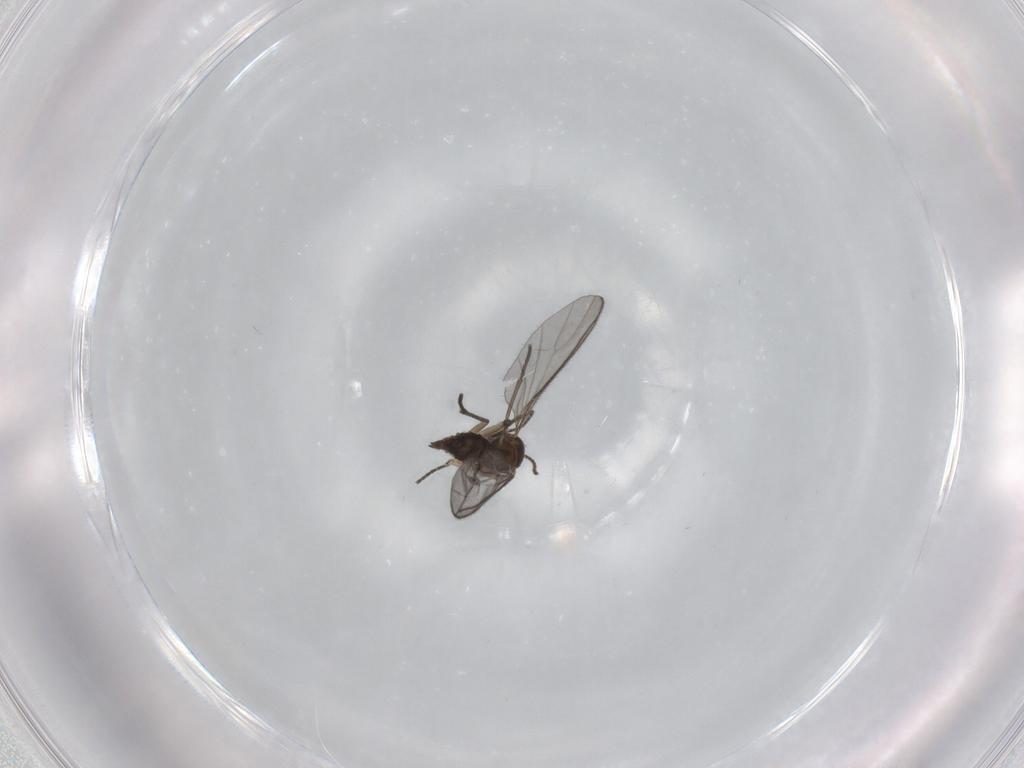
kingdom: Animalia
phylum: Arthropoda
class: Insecta
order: Diptera
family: Sciaridae
